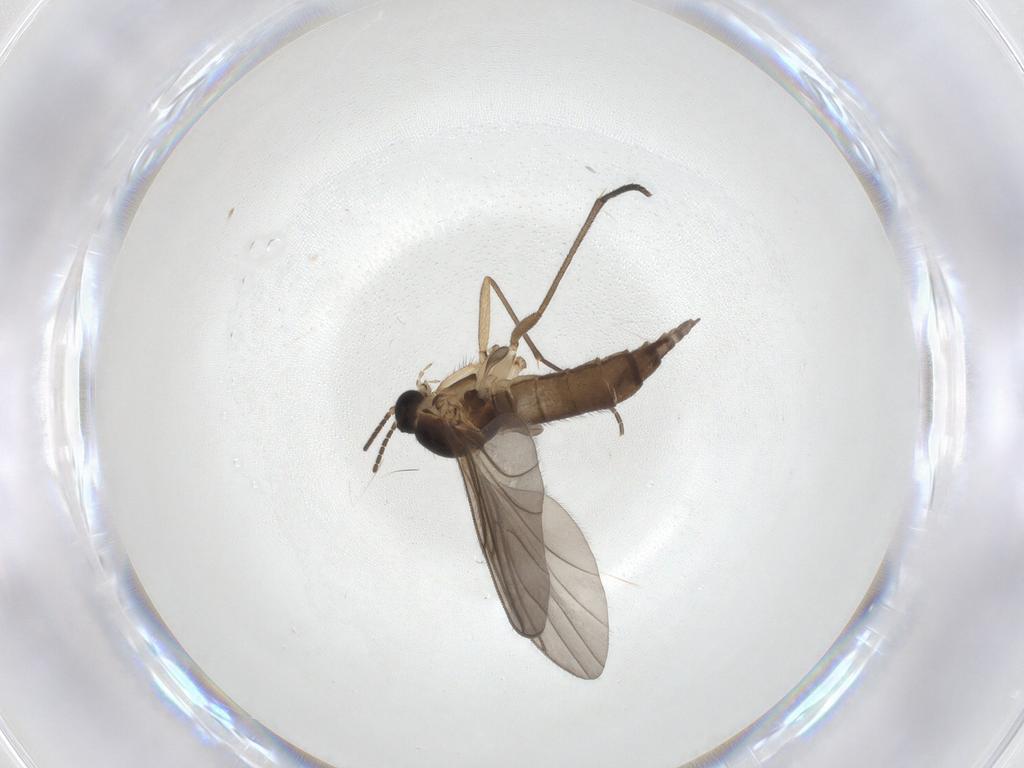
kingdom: Animalia
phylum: Arthropoda
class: Insecta
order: Diptera
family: Sciaridae
